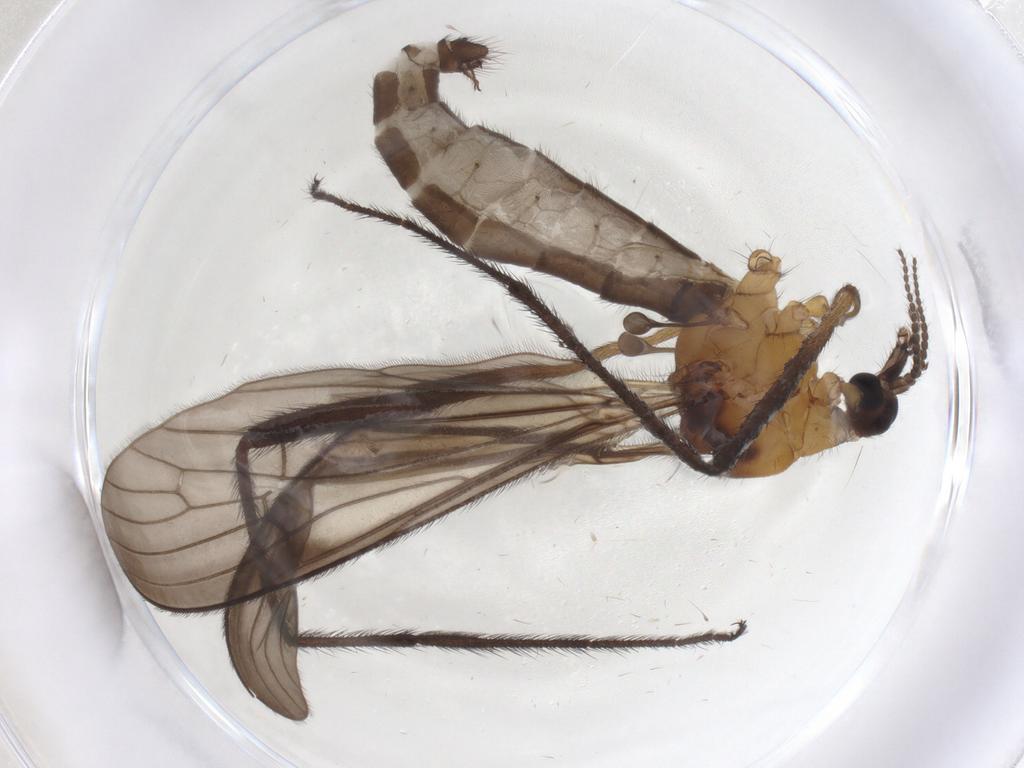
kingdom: Animalia
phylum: Arthropoda
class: Insecta
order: Diptera
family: Limoniidae
